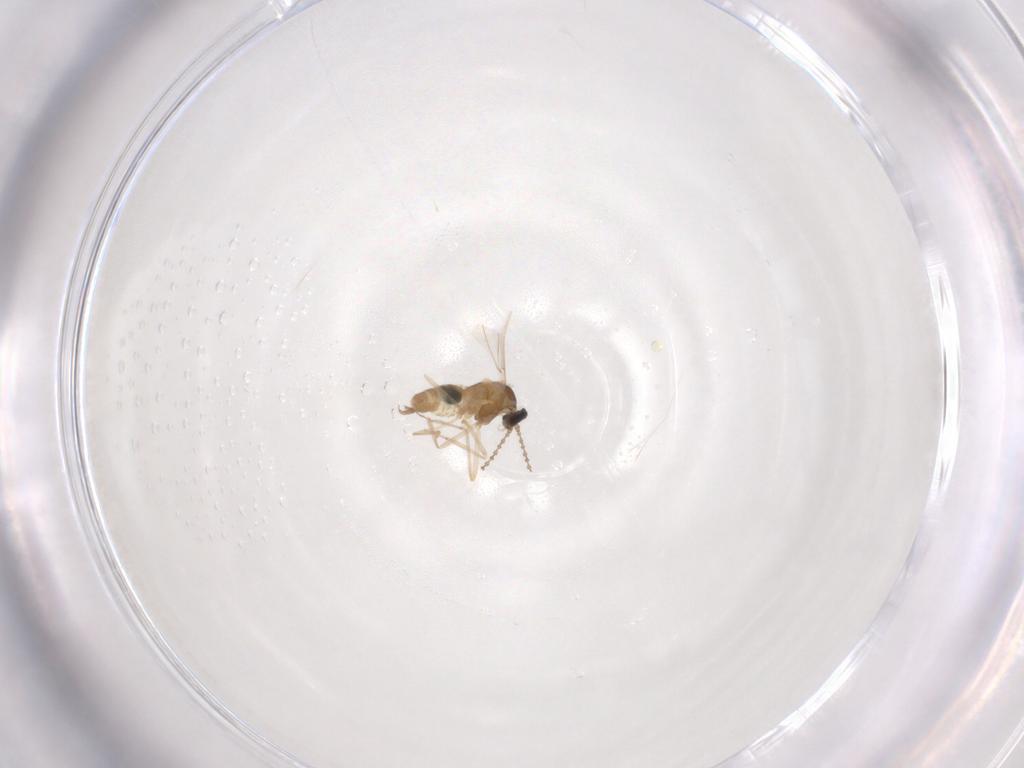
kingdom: Animalia
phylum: Arthropoda
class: Insecta
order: Diptera
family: Cecidomyiidae
